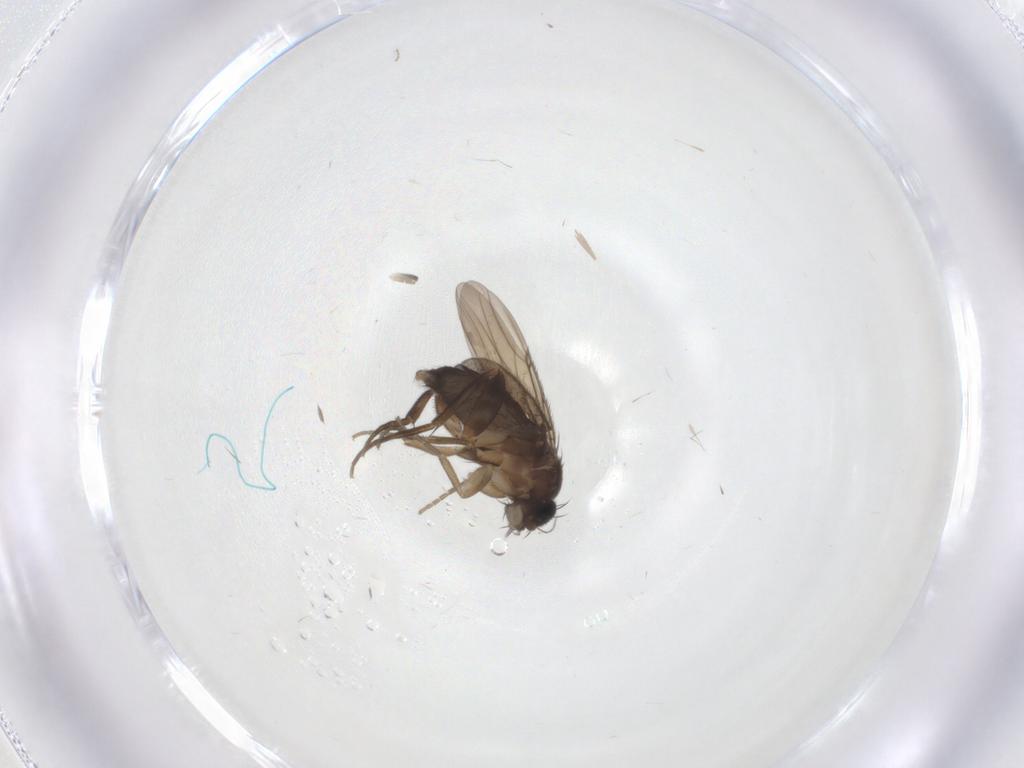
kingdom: Animalia
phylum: Arthropoda
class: Insecta
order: Diptera
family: Phoridae
